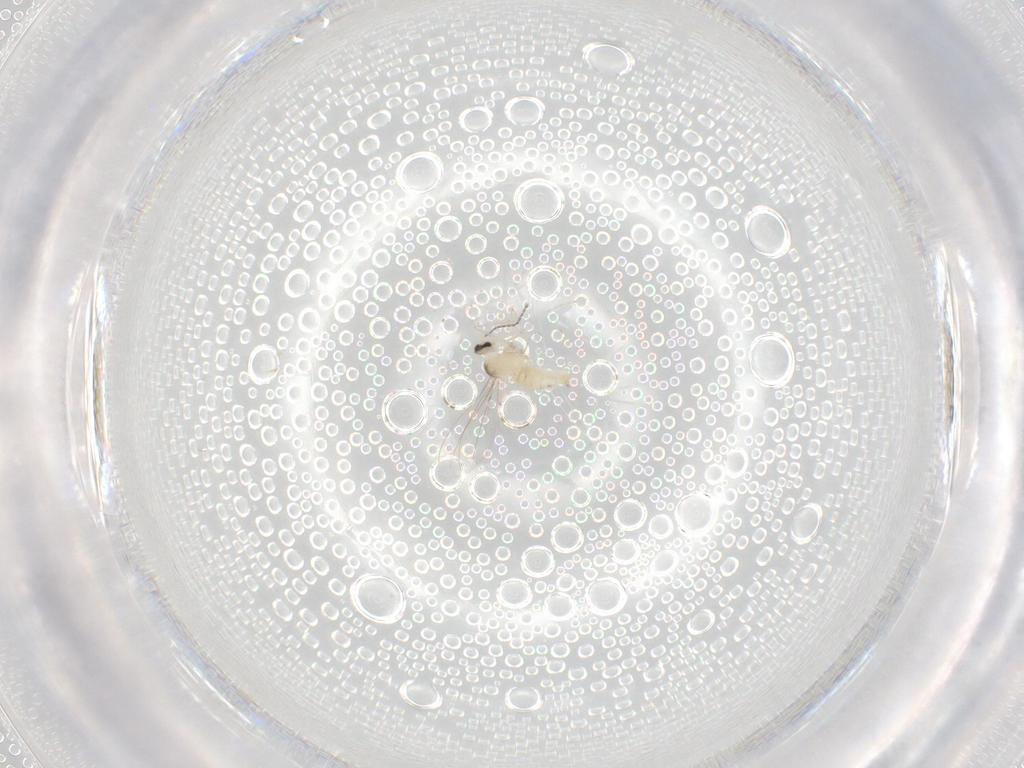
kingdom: Animalia
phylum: Arthropoda
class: Insecta
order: Diptera
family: Cecidomyiidae
